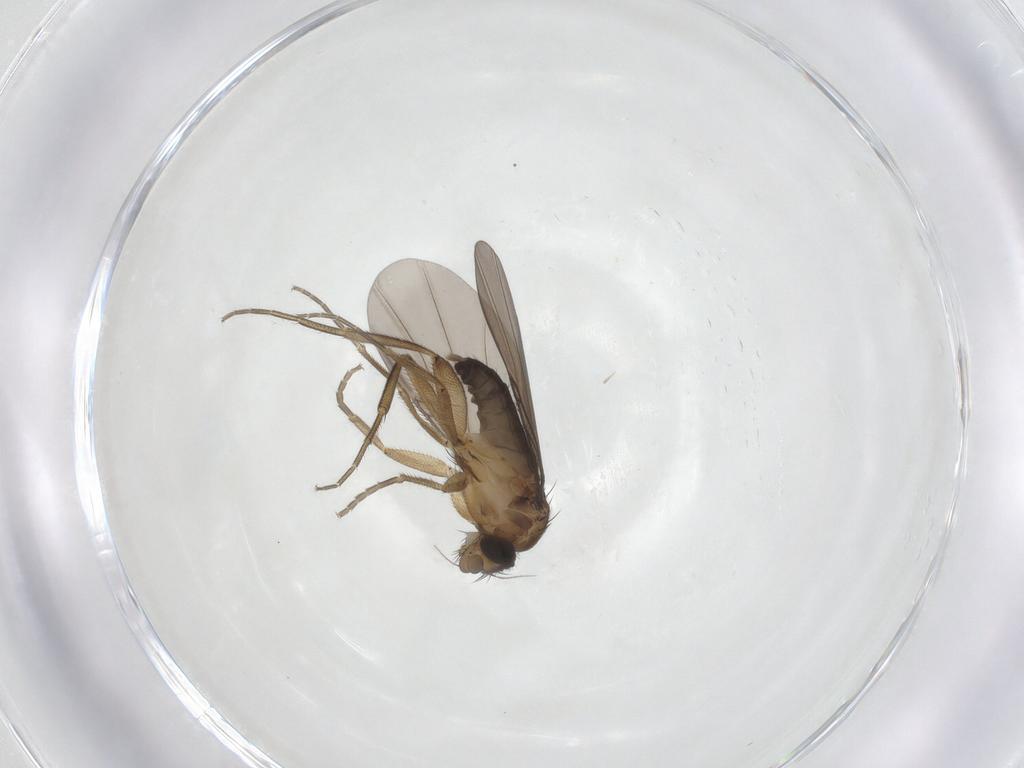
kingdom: Animalia
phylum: Arthropoda
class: Insecta
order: Diptera
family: Phoridae
